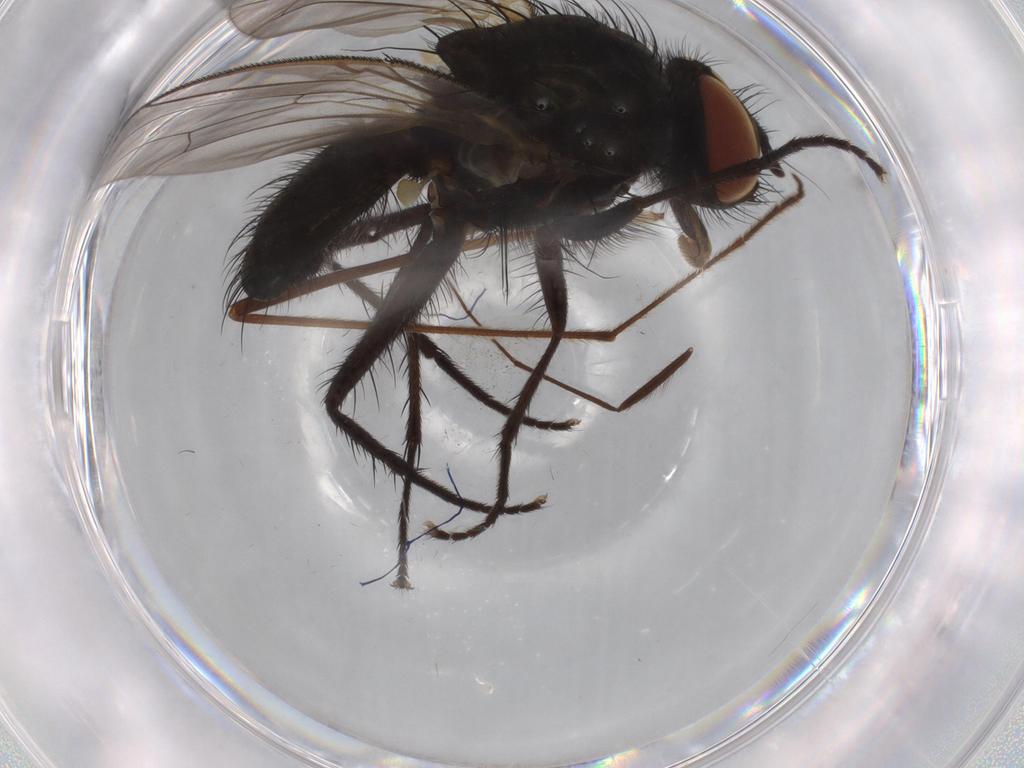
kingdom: Animalia
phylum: Arthropoda
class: Insecta
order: Diptera
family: Anthomyiidae
